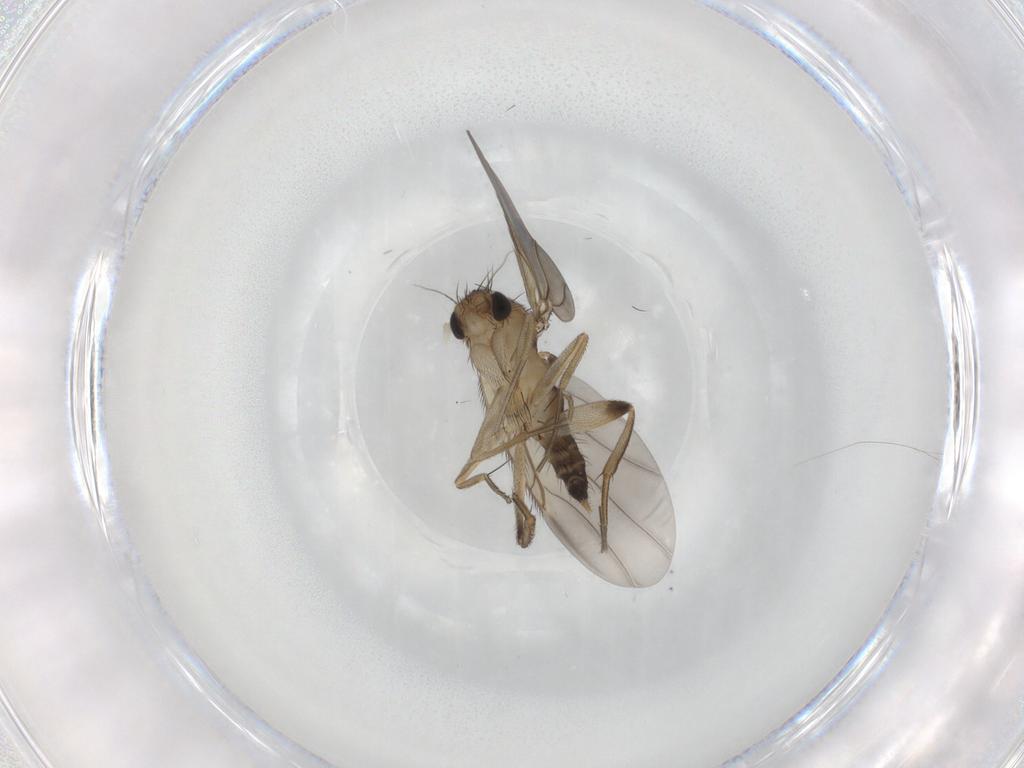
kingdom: Animalia
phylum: Arthropoda
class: Insecta
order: Diptera
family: Phoridae
